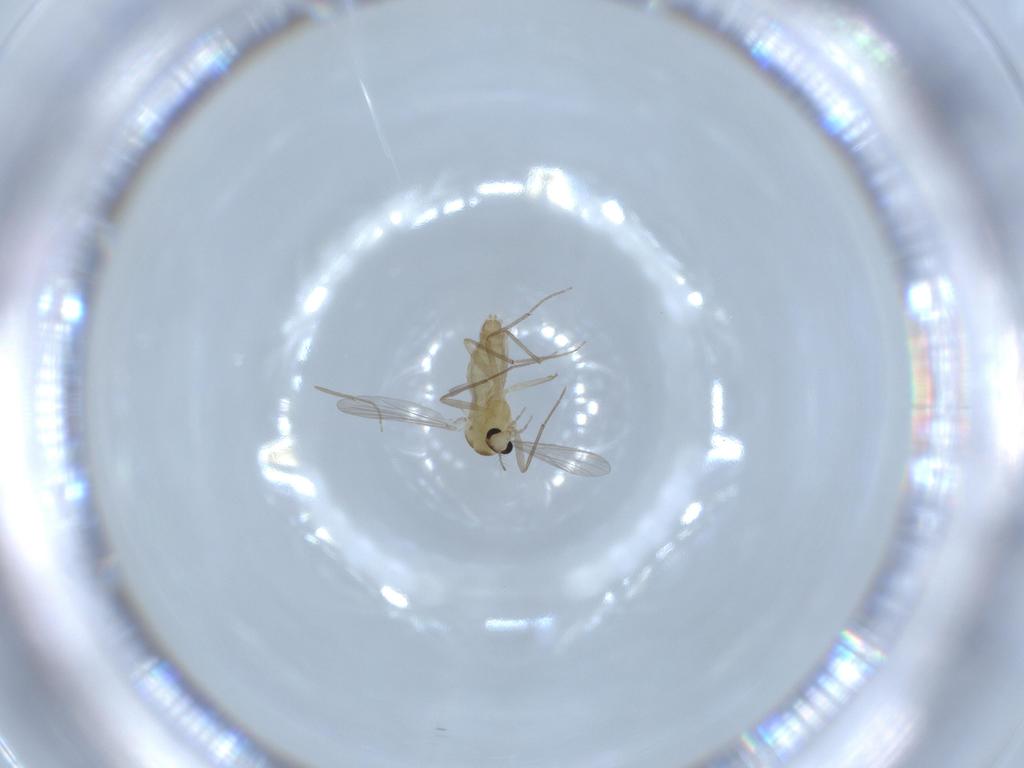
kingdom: Animalia
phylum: Arthropoda
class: Insecta
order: Diptera
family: Chironomidae
